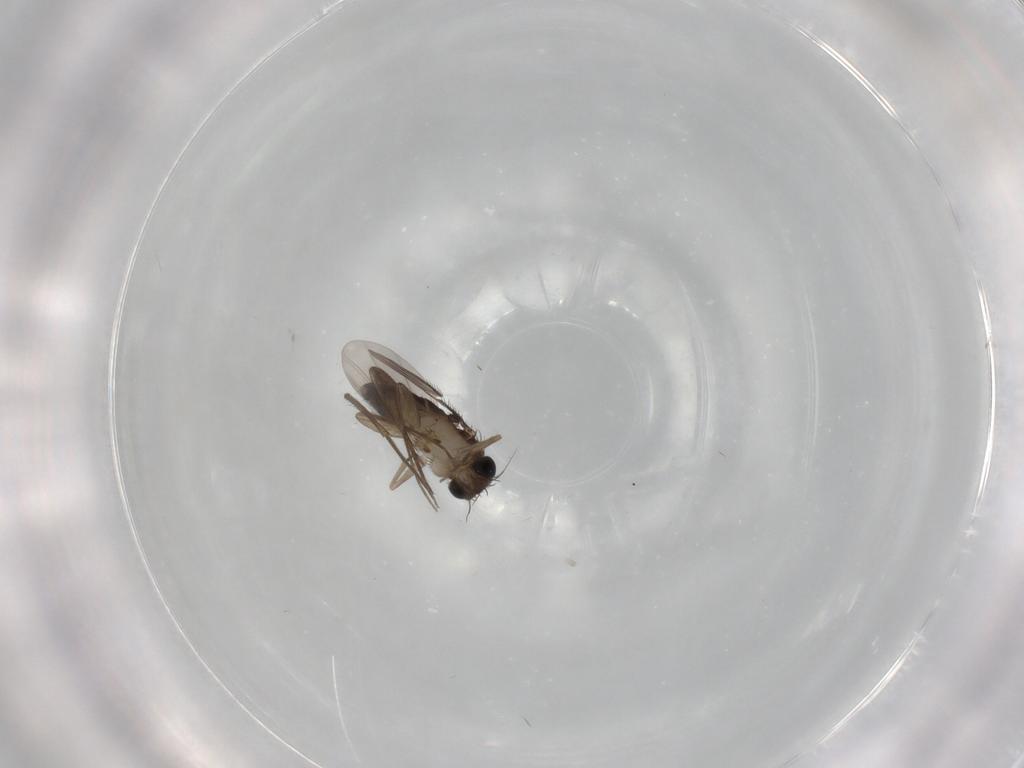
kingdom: Animalia
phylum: Arthropoda
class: Insecta
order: Diptera
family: Phoridae
